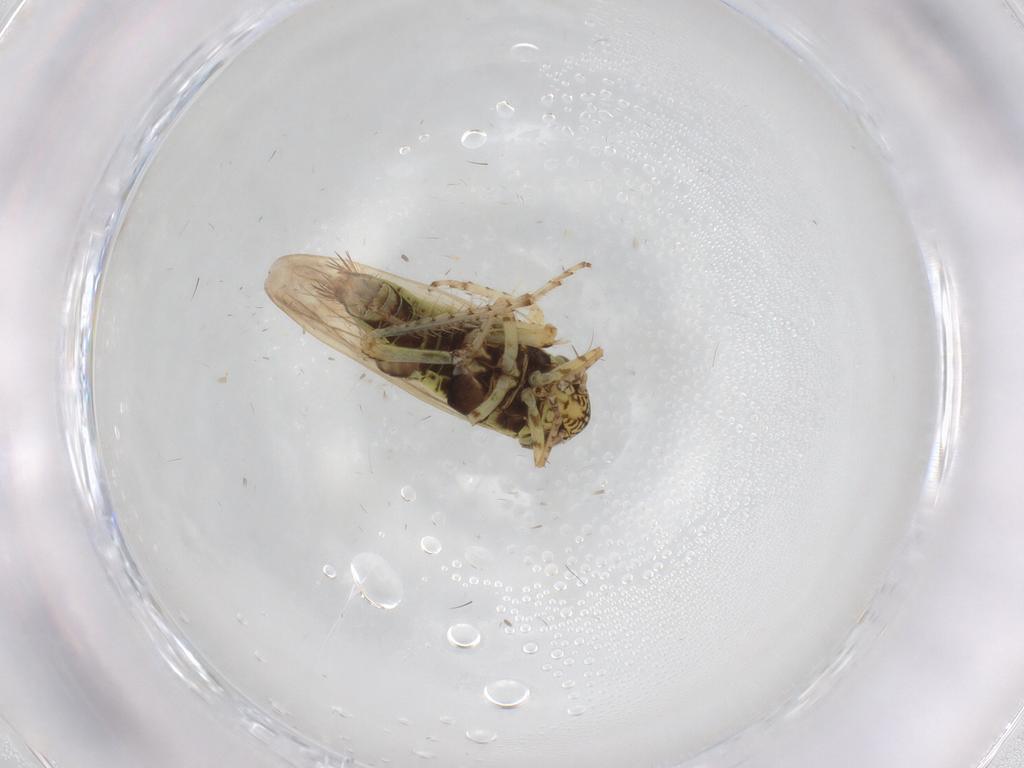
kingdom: Animalia
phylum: Arthropoda
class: Insecta
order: Hemiptera
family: Cicadellidae
